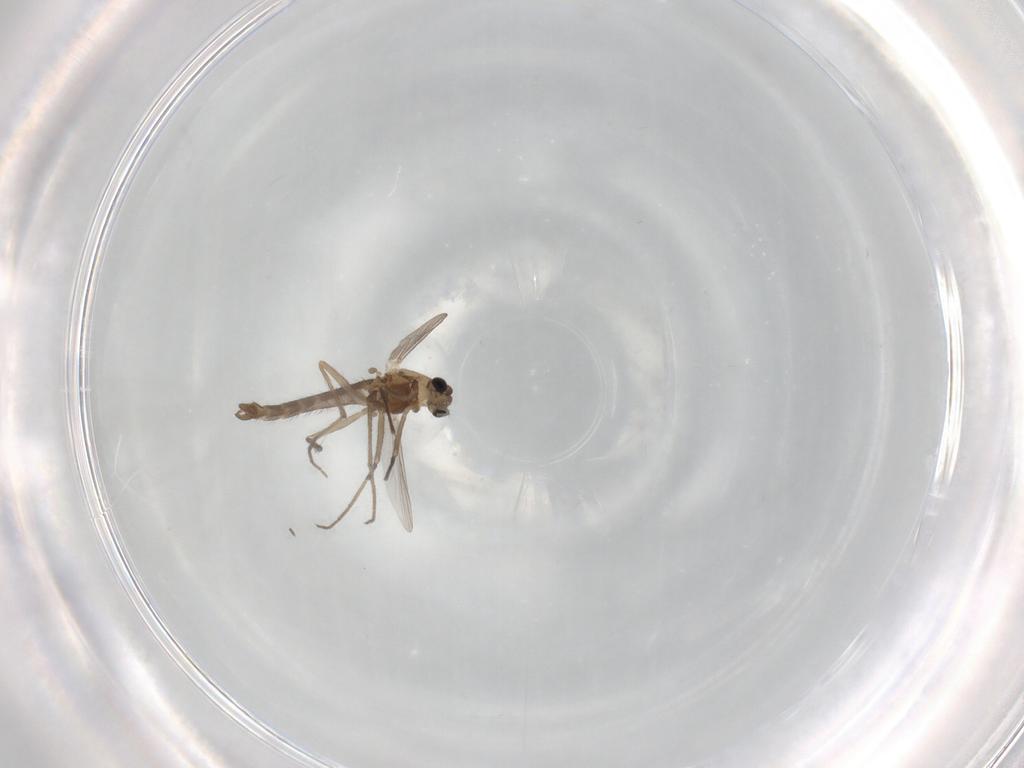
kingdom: Animalia
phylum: Arthropoda
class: Insecta
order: Diptera
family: Chironomidae
